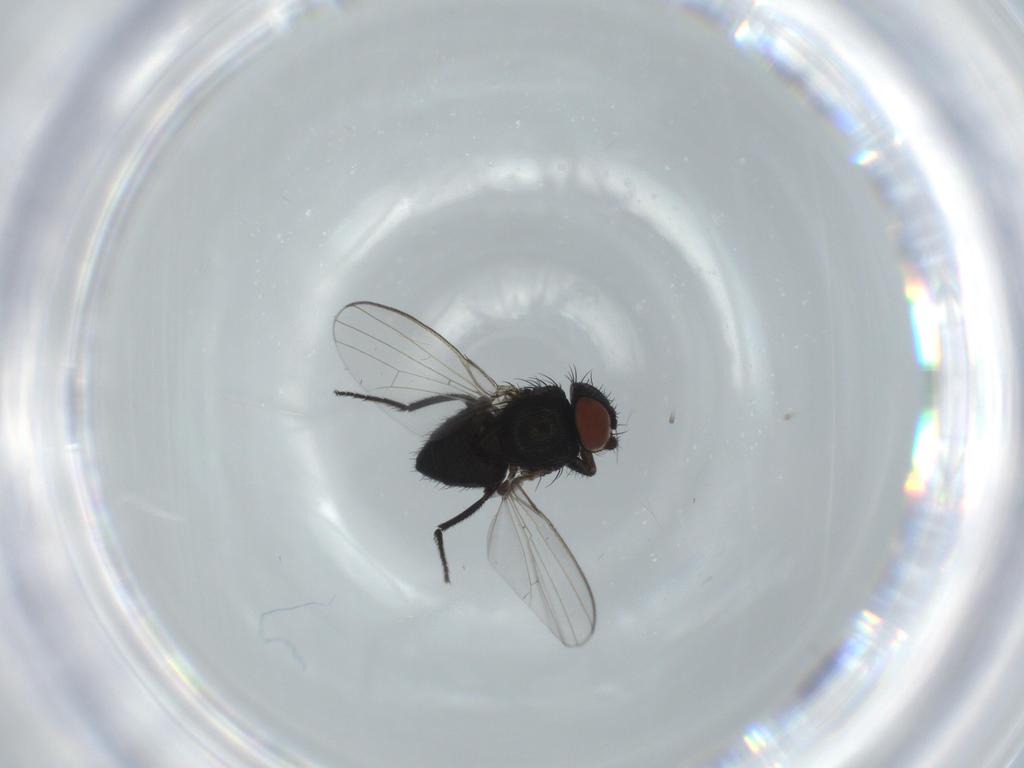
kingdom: Animalia
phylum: Arthropoda
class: Insecta
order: Diptera
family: Milichiidae
